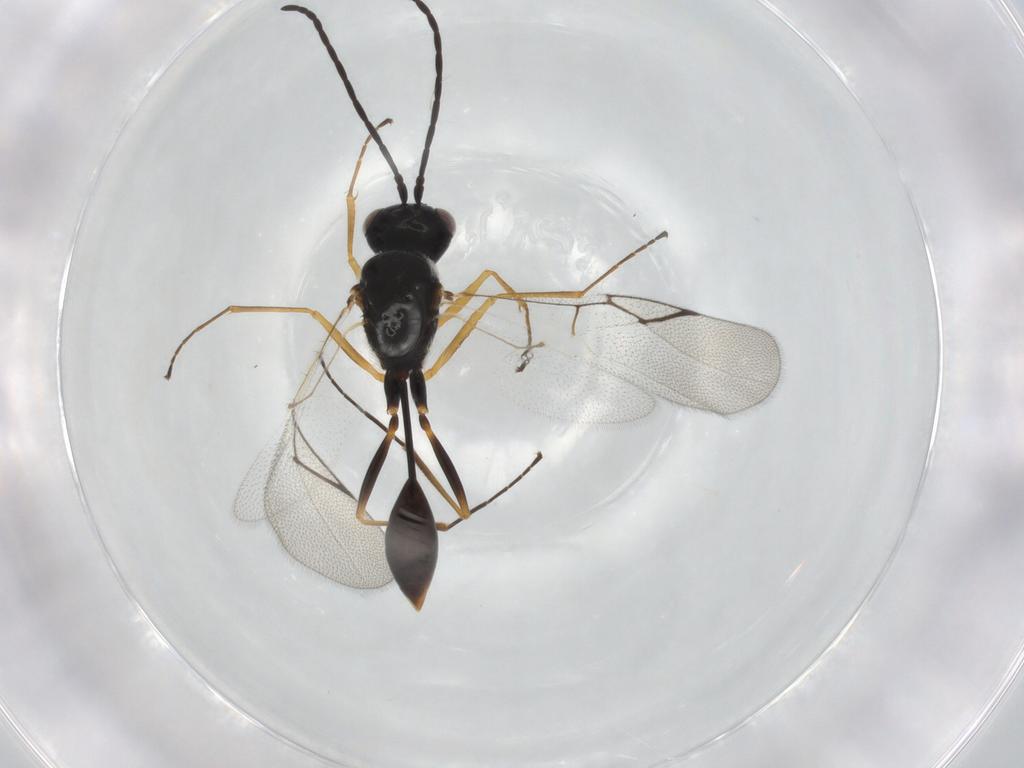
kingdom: Animalia
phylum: Arthropoda
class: Insecta
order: Hymenoptera
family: Figitidae
